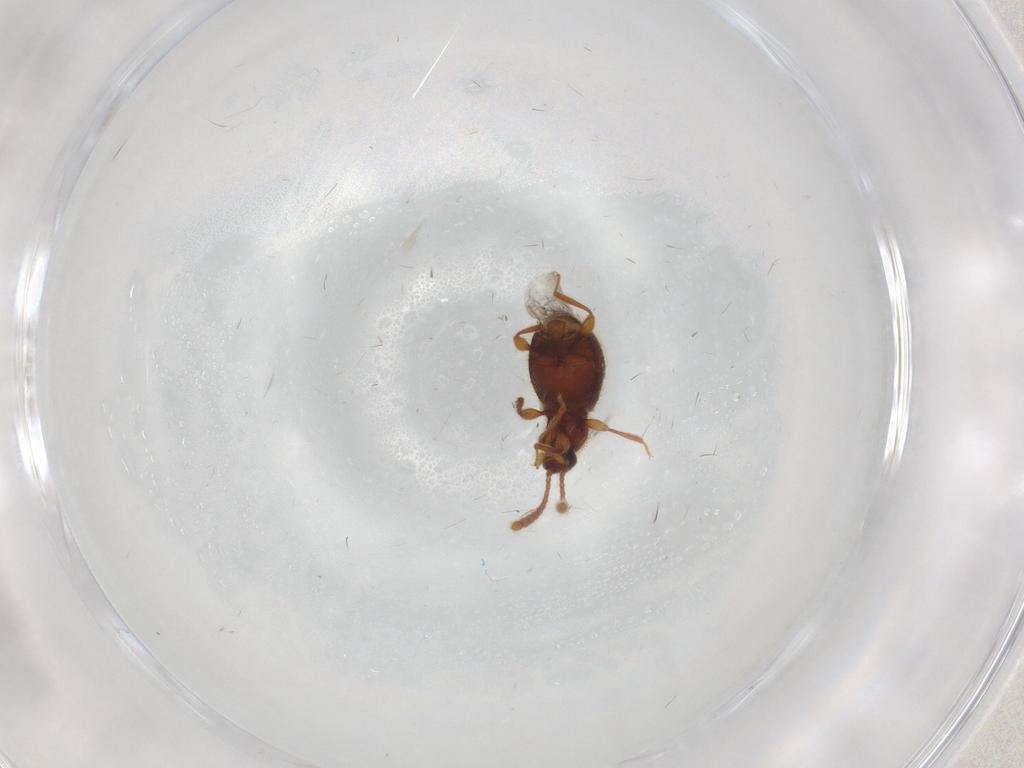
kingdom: Animalia
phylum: Arthropoda
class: Insecta
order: Coleoptera
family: Staphylinidae
